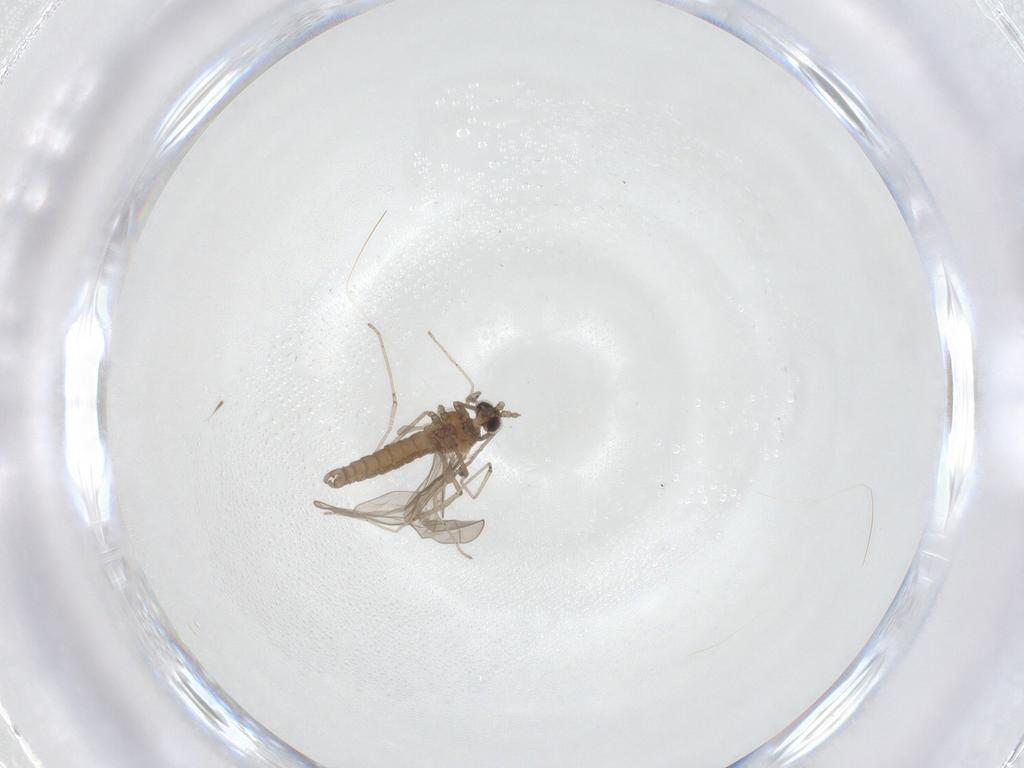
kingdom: Animalia
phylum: Arthropoda
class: Insecta
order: Diptera
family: Cecidomyiidae
